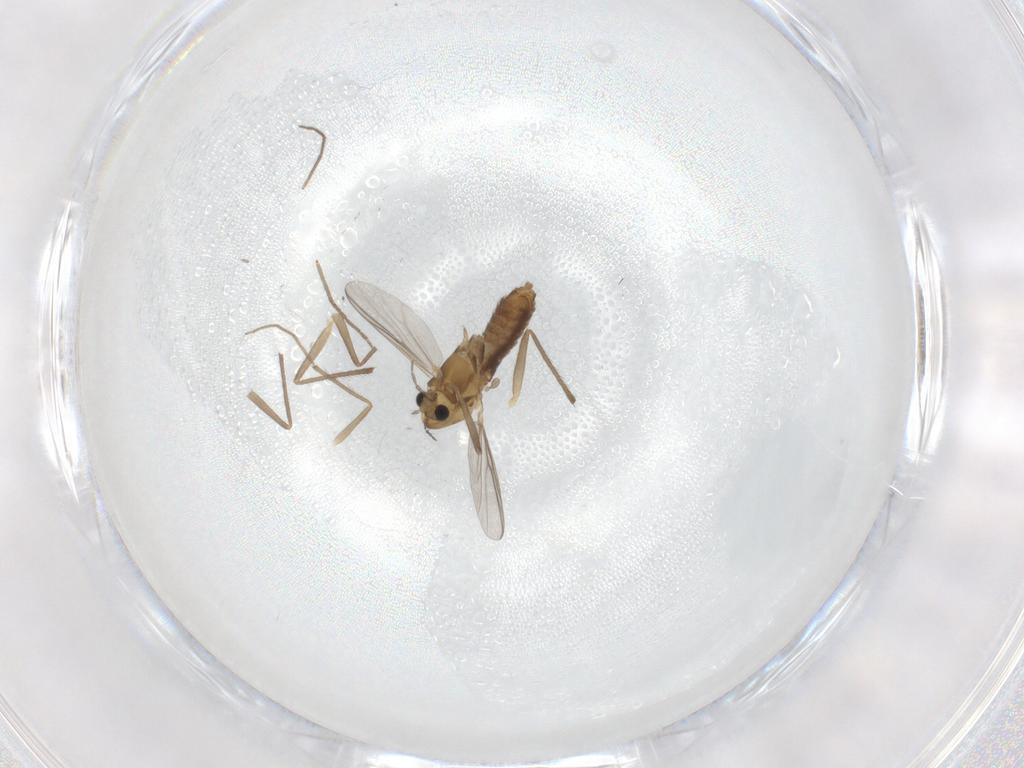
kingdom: Animalia
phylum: Arthropoda
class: Insecta
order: Diptera
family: Chironomidae
